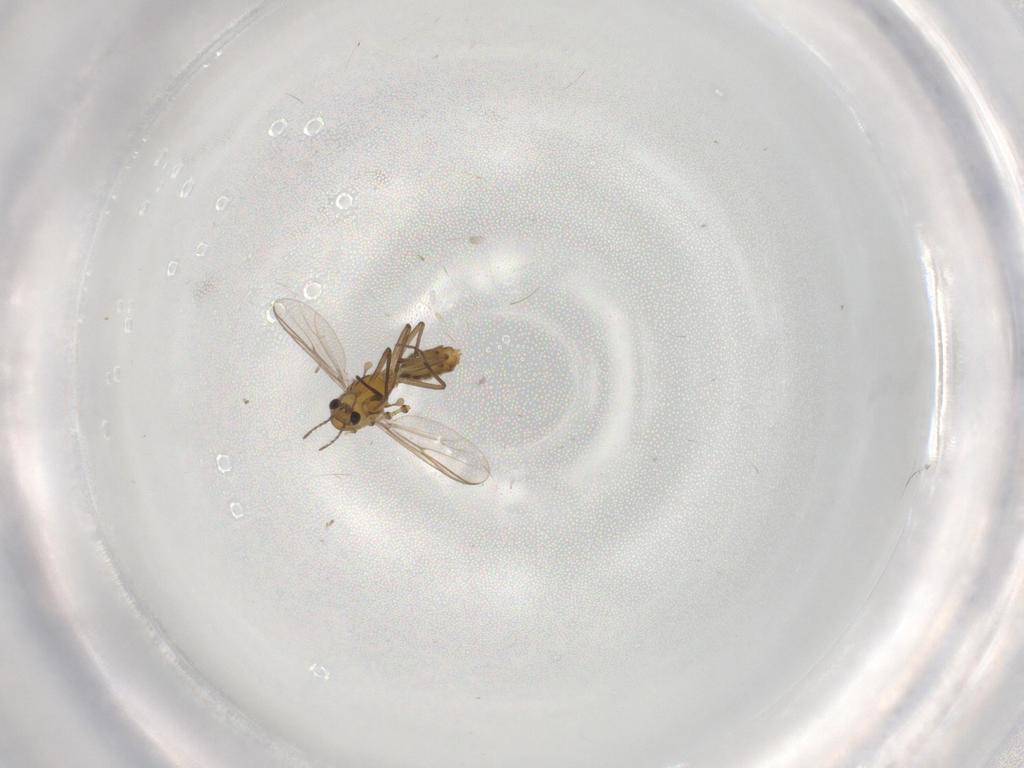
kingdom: Animalia
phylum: Arthropoda
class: Insecta
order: Diptera
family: Chironomidae
